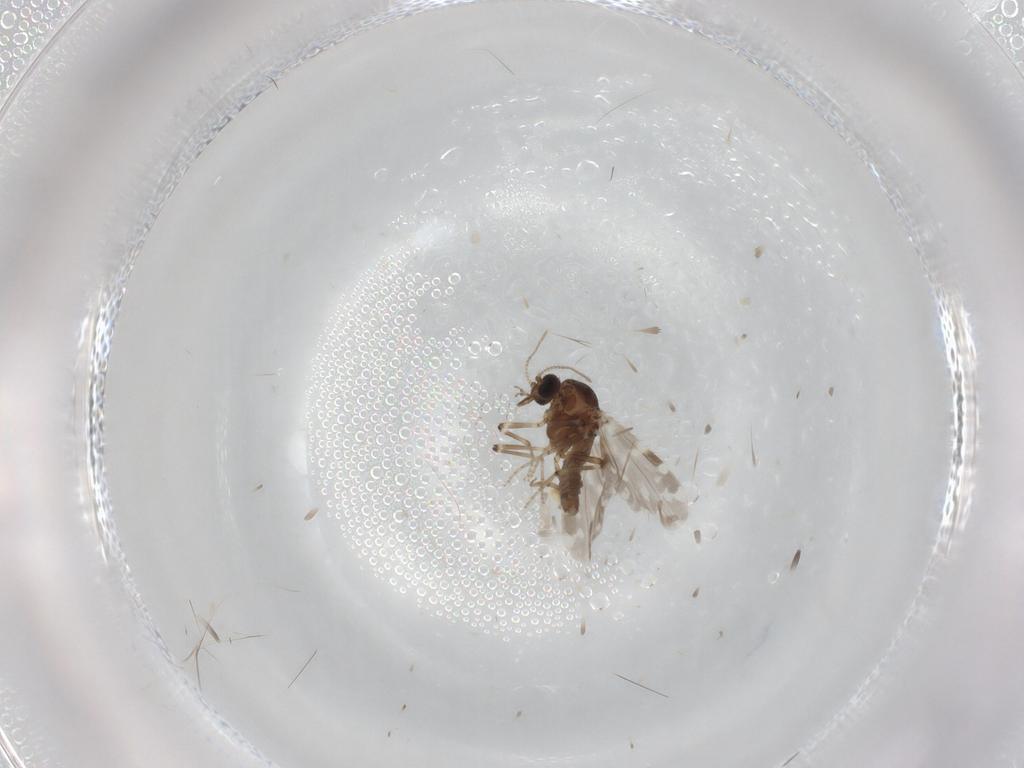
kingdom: Animalia
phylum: Arthropoda
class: Insecta
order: Diptera
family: Ceratopogonidae
